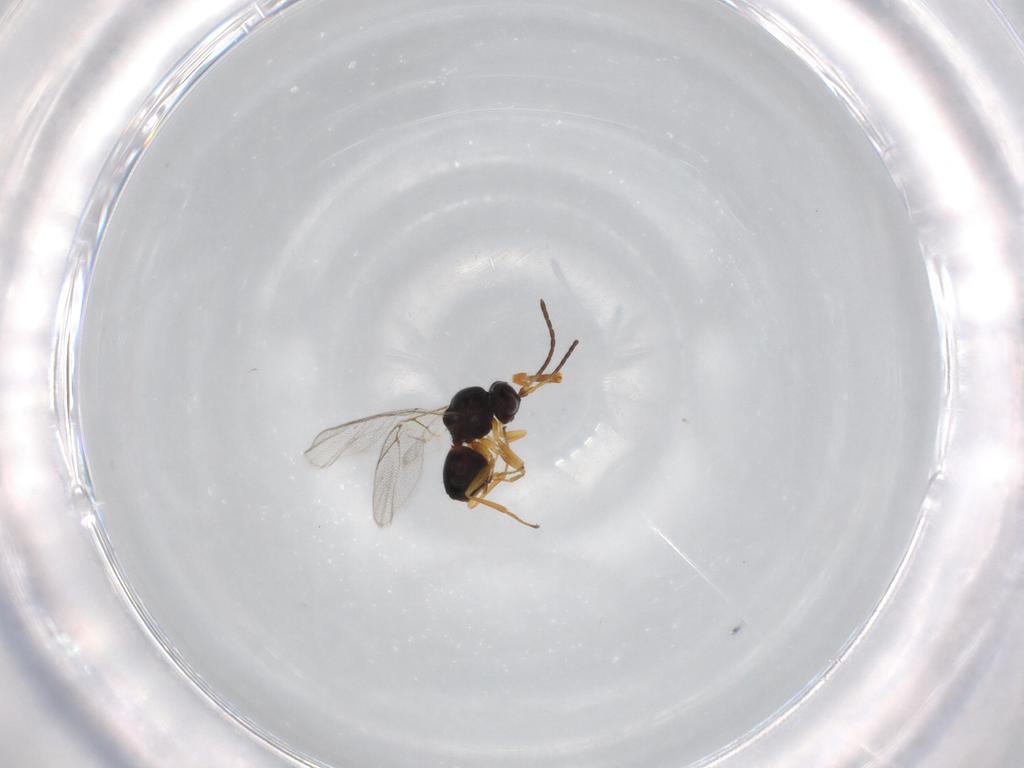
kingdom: Animalia
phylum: Arthropoda
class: Insecta
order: Hymenoptera
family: Figitidae
